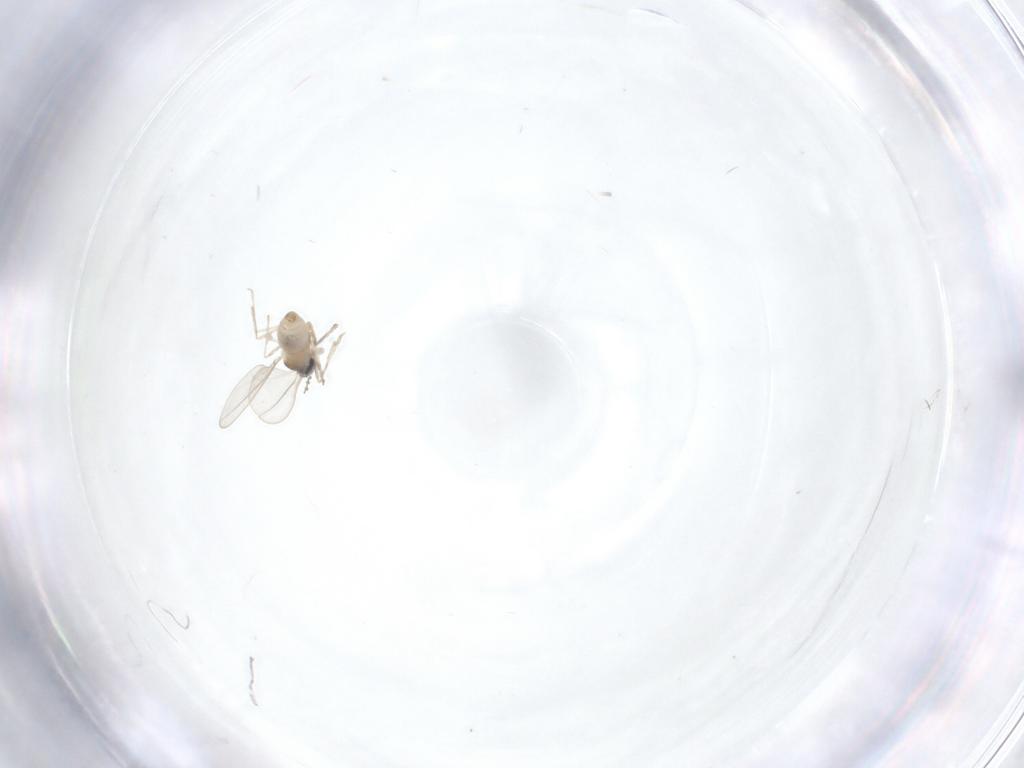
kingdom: Animalia
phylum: Arthropoda
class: Insecta
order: Diptera
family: Cecidomyiidae
